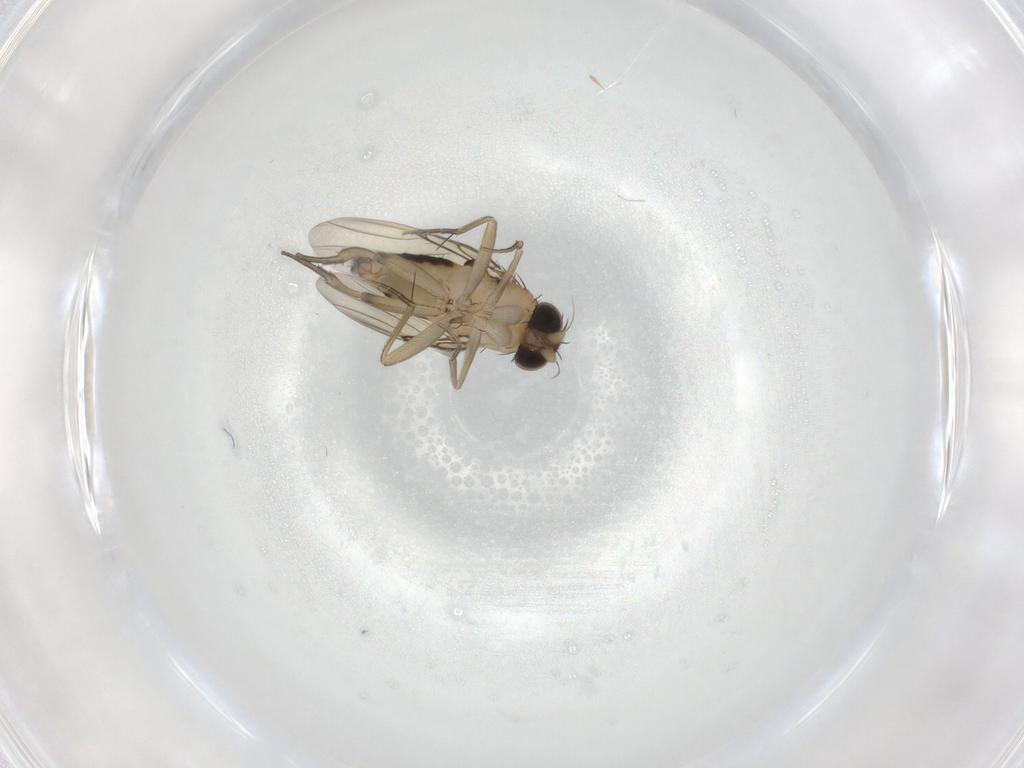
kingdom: Animalia
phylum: Arthropoda
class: Insecta
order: Diptera
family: Phoridae
